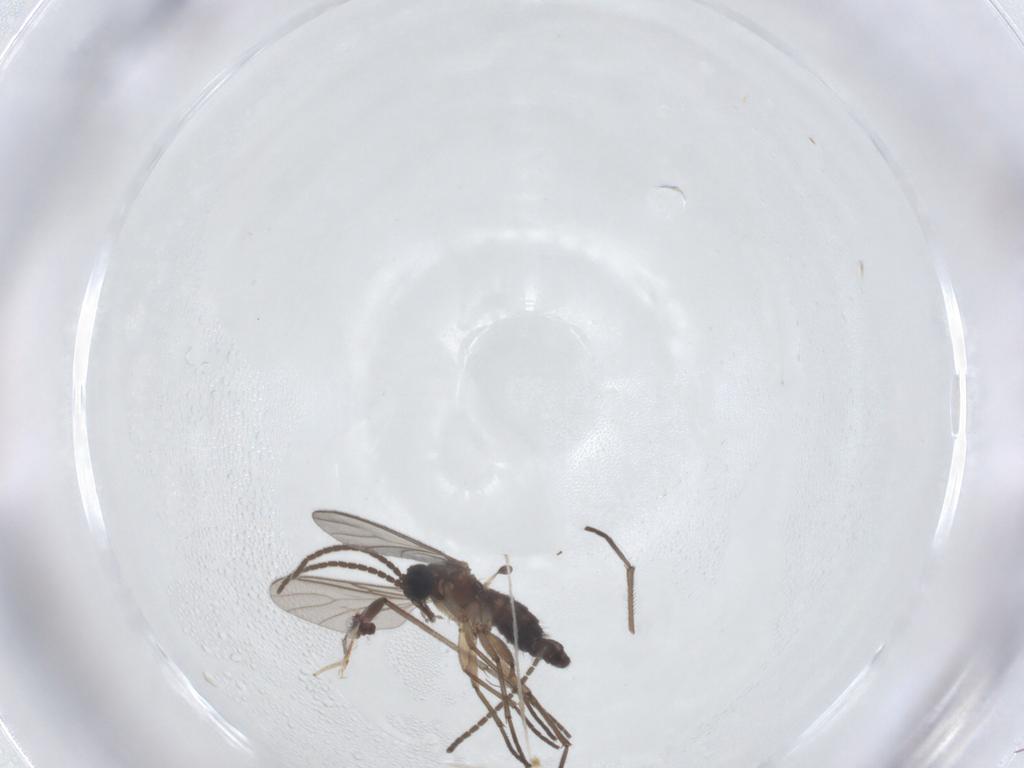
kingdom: Animalia
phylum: Arthropoda
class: Insecta
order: Diptera
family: Sciaridae
